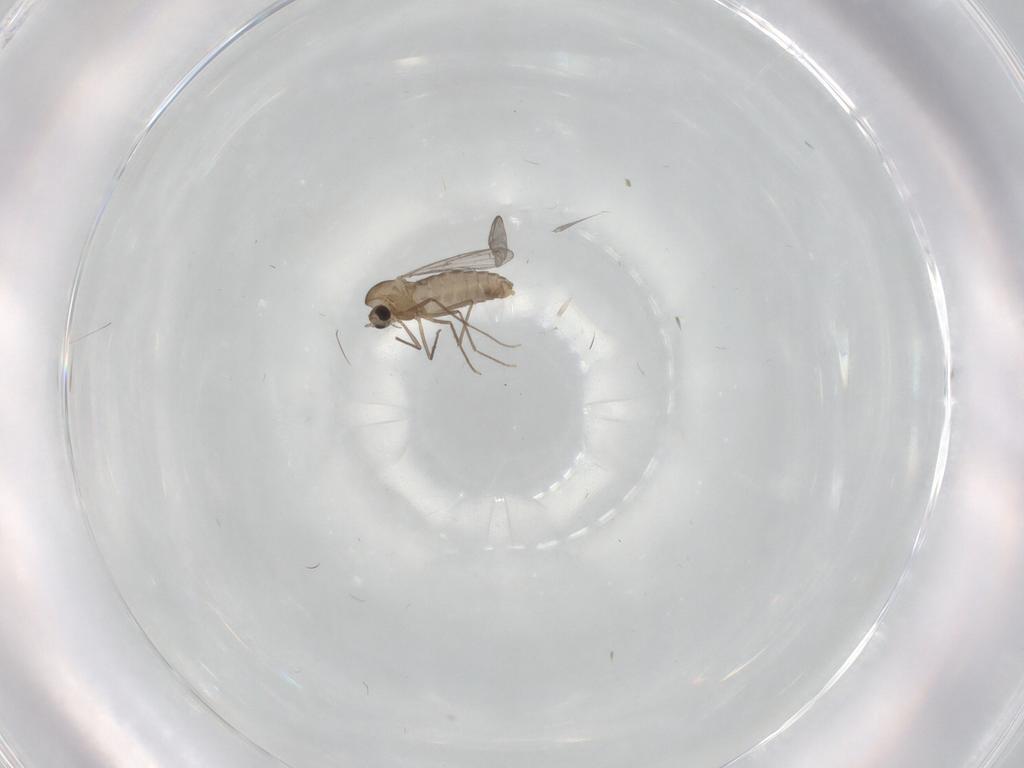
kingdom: Animalia
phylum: Arthropoda
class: Insecta
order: Diptera
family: Chironomidae
